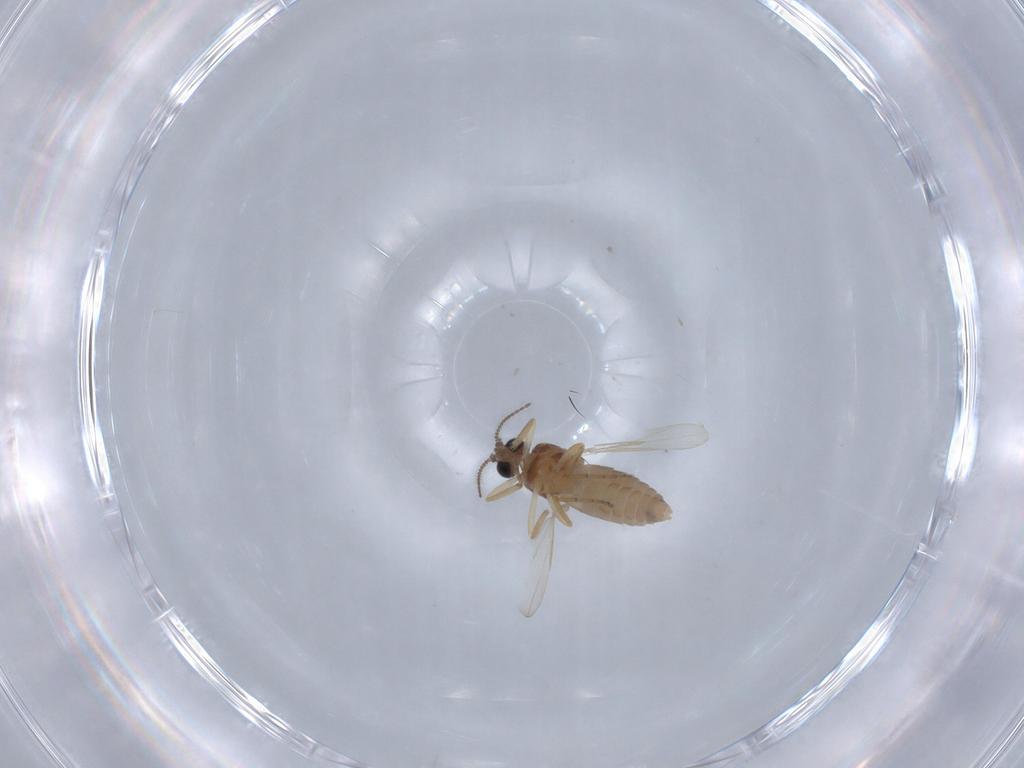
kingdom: Animalia
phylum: Arthropoda
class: Insecta
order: Diptera
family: Ceratopogonidae
